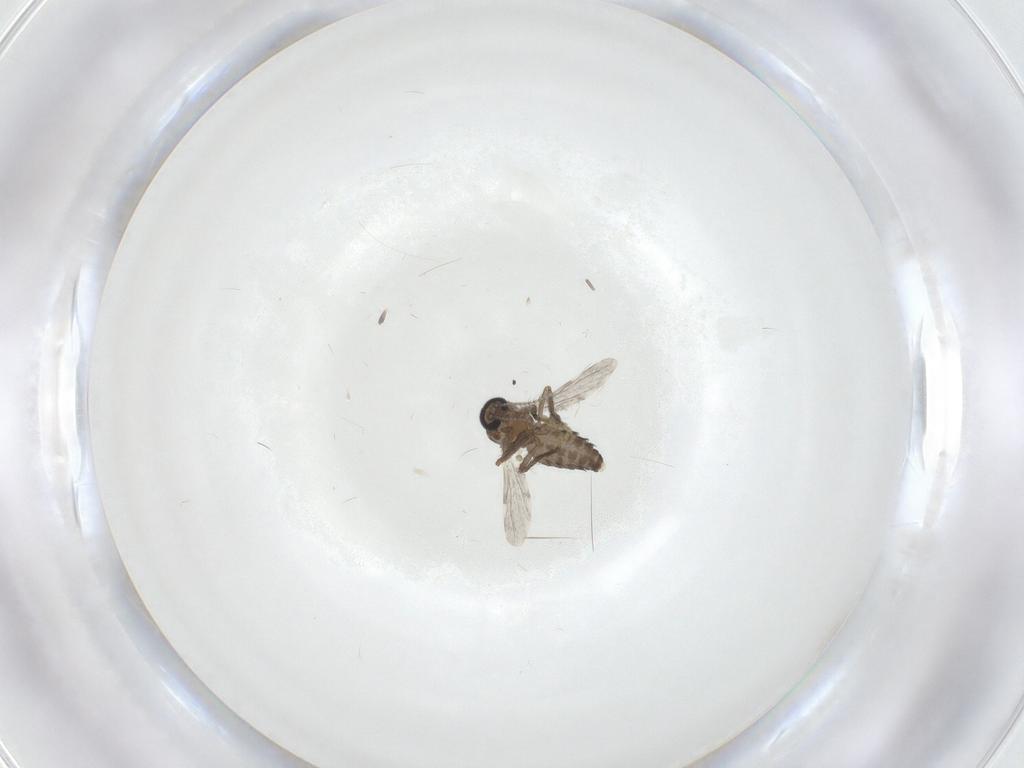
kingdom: Animalia
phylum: Arthropoda
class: Insecta
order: Diptera
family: Ceratopogonidae
